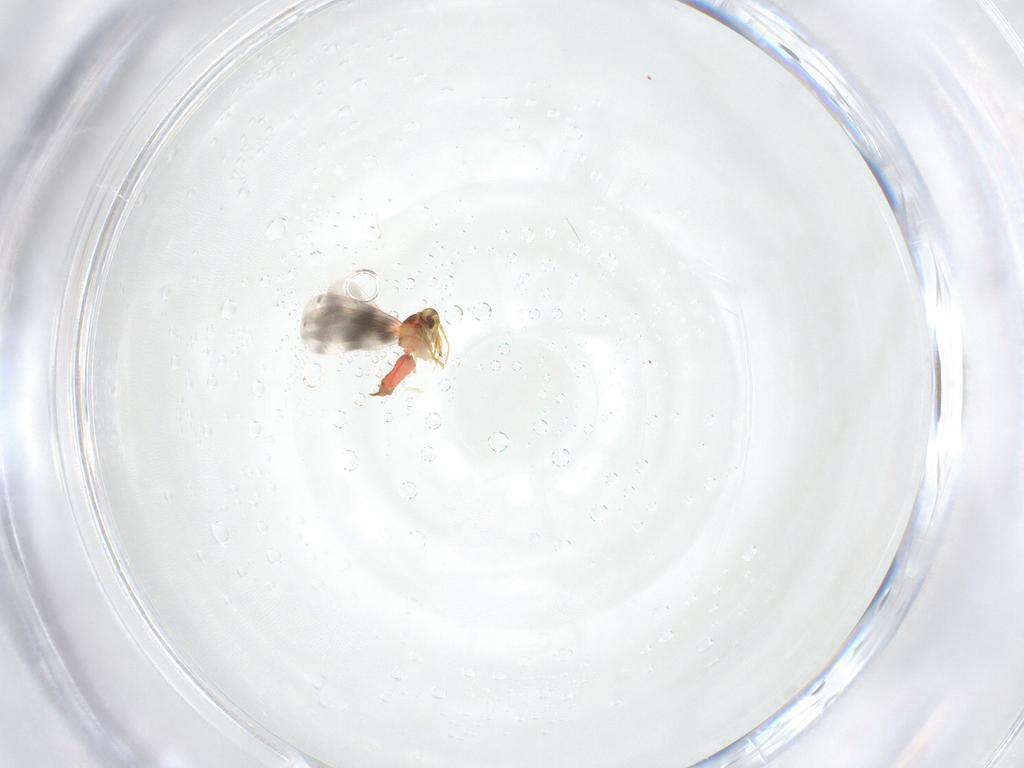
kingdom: Animalia
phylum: Arthropoda
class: Insecta
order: Hemiptera
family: Aleyrodidae
